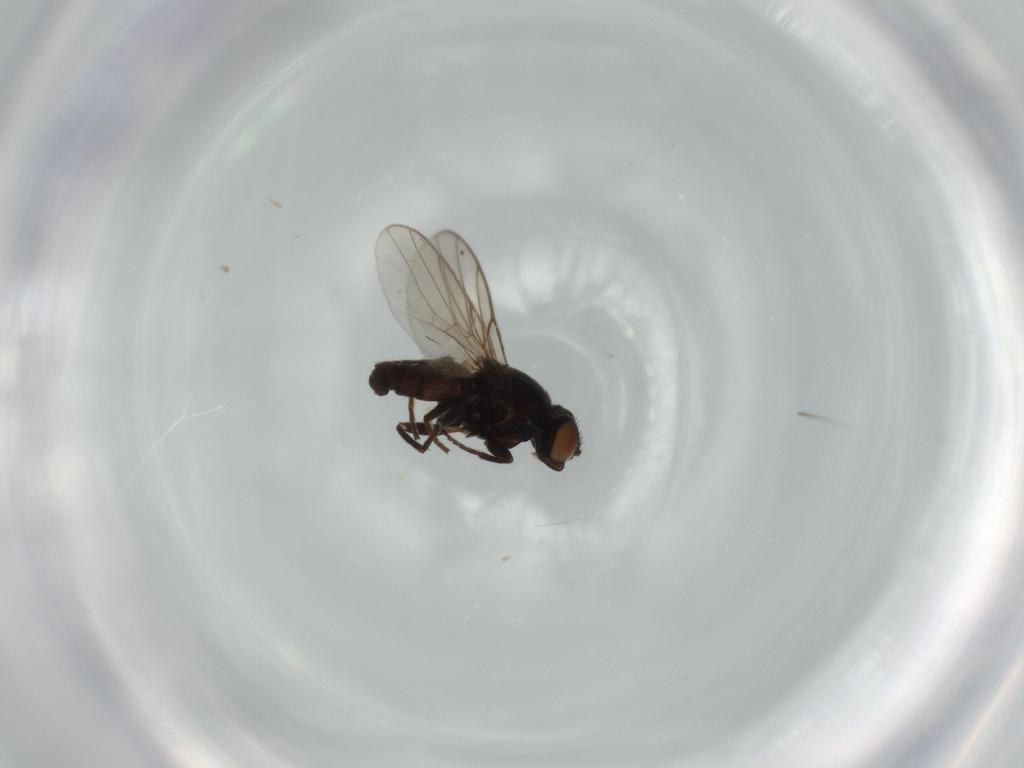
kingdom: Animalia
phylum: Arthropoda
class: Insecta
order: Diptera
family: Chloropidae
